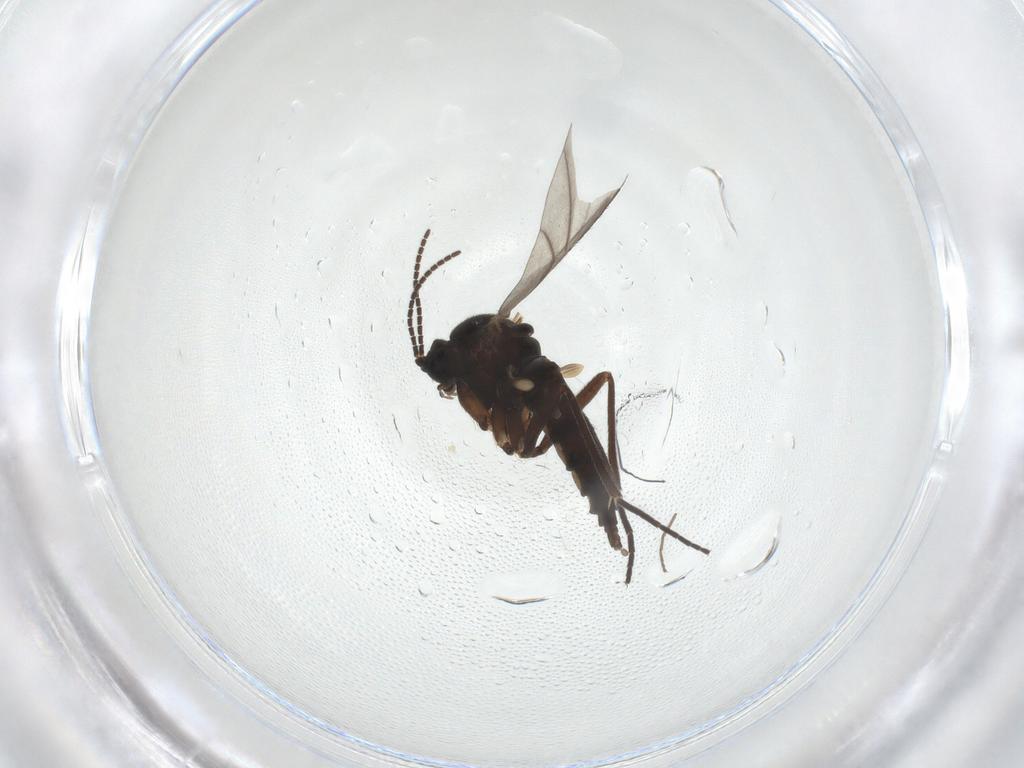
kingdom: Animalia
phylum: Arthropoda
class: Insecta
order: Diptera
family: Sciaridae
